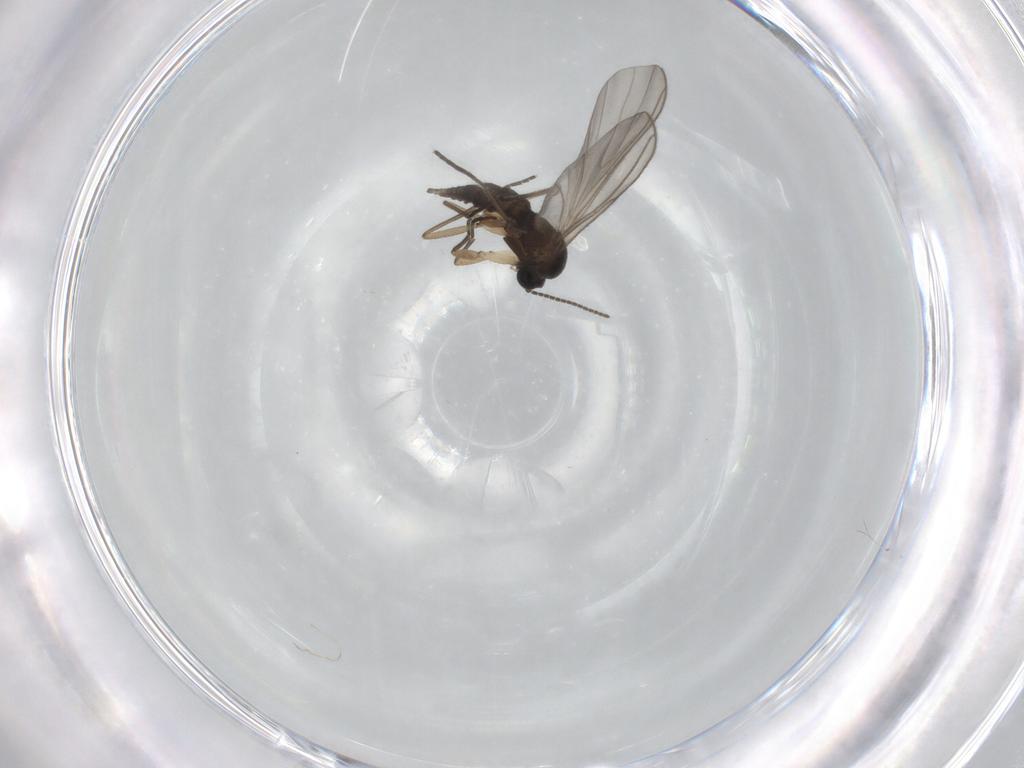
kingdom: Animalia
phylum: Arthropoda
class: Insecta
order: Diptera
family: Sciaridae
